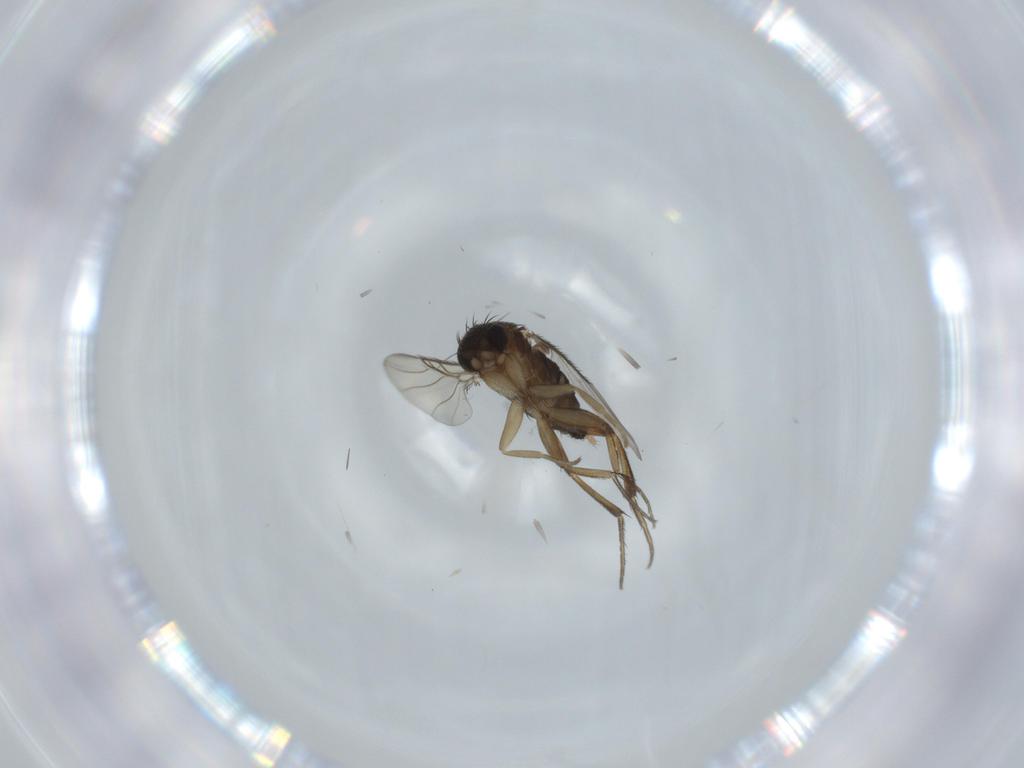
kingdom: Animalia
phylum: Arthropoda
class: Insecta
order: Diptera
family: Phoridae
